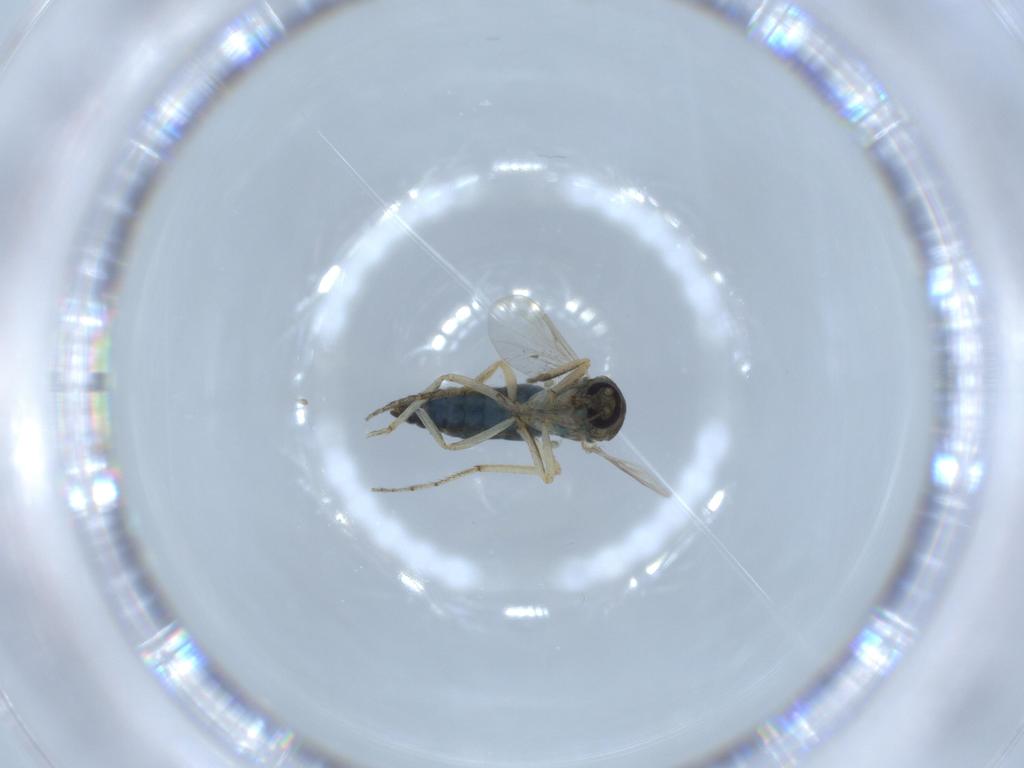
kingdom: Animalia
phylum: Arthropoda
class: Insecta
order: Diptera
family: Ceratopogonidae
